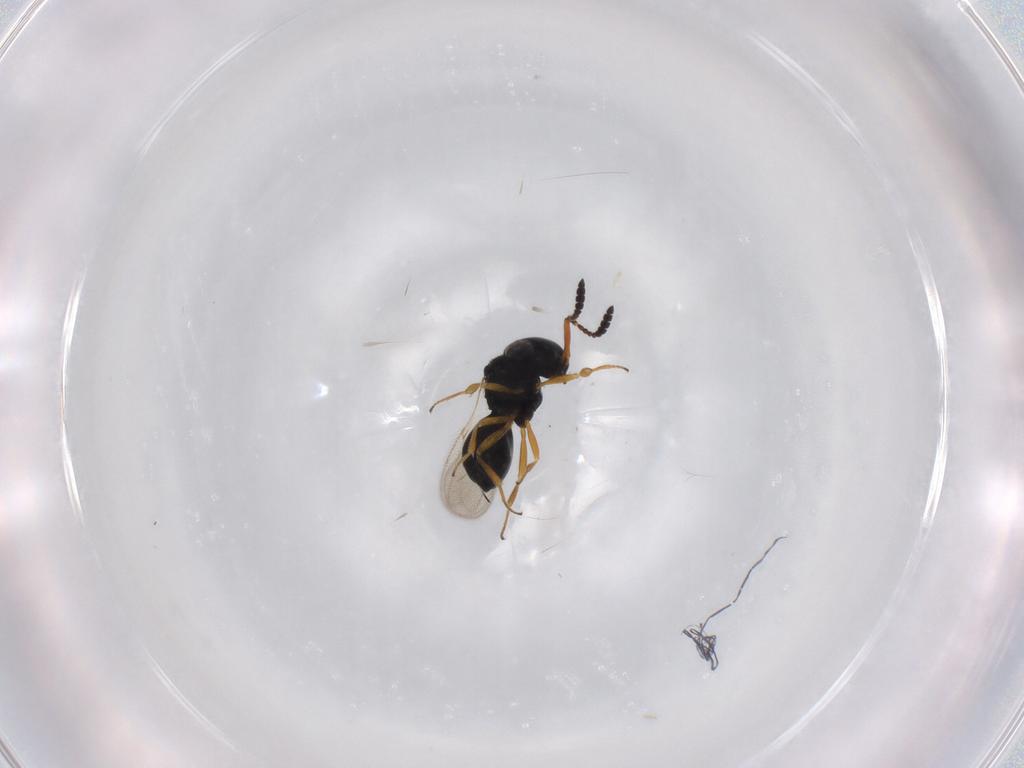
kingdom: Animalia
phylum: Arthropoda
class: Insecta
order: Hymenoptera
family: Scelionidae
